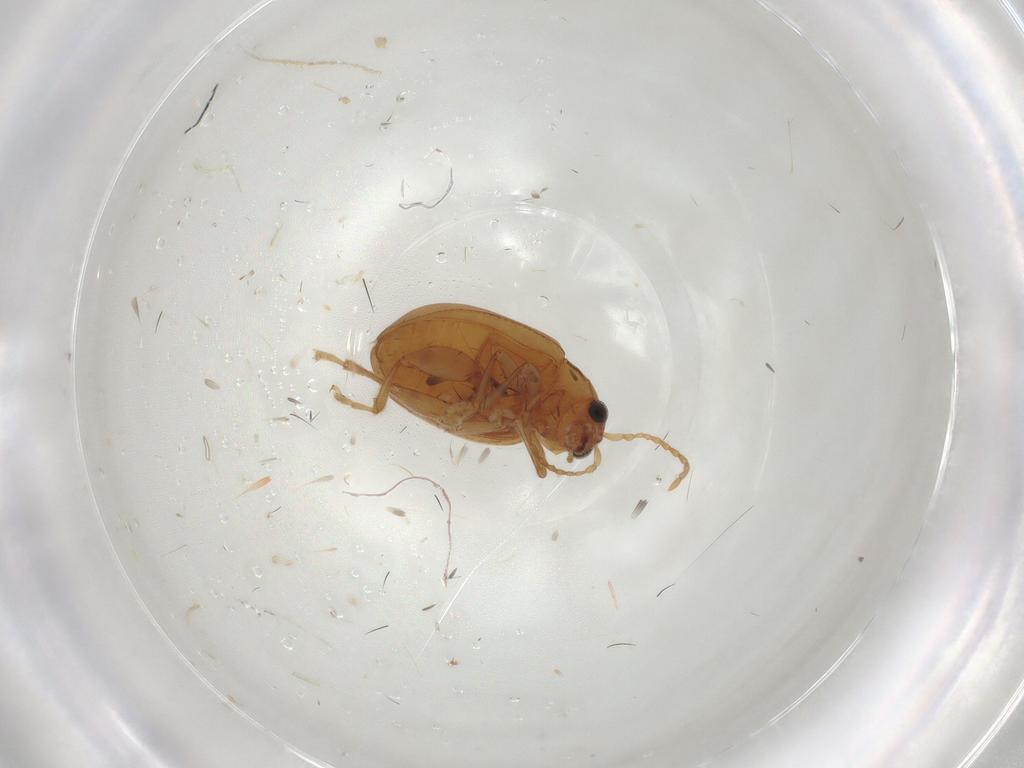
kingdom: Animalia
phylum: Arthropoda
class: Insecta
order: Coleoptera
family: Chrysomelidae
